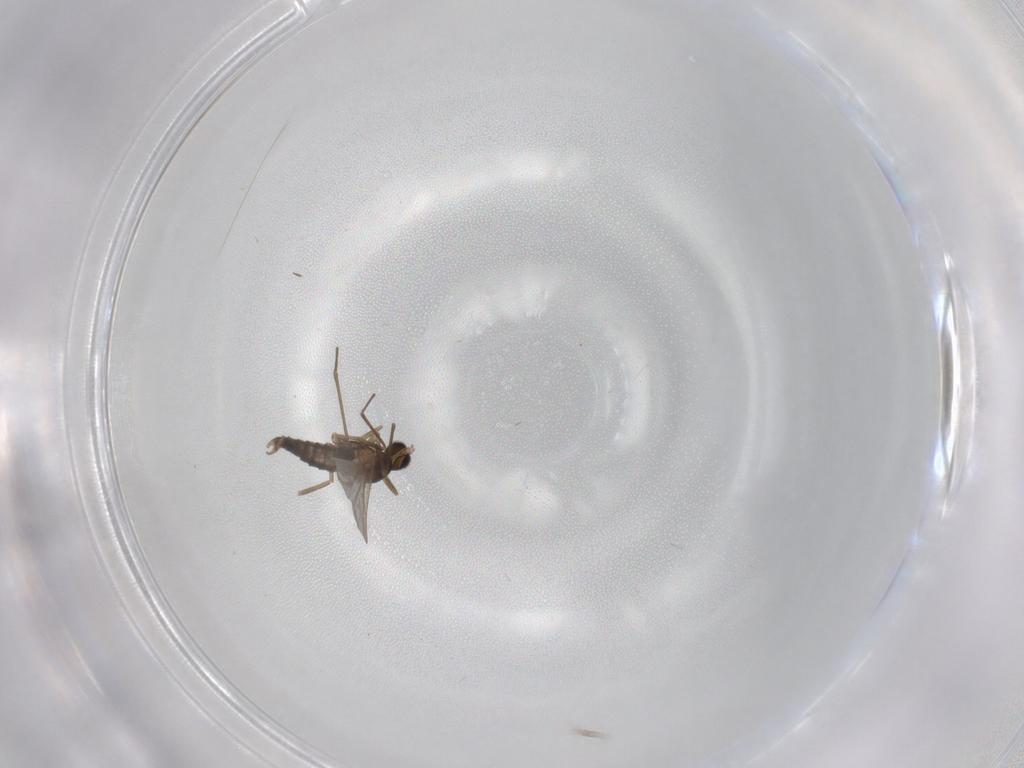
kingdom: Animalia
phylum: Arthropoda
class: Insecta
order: Diptera
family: Cecidomyiidae
